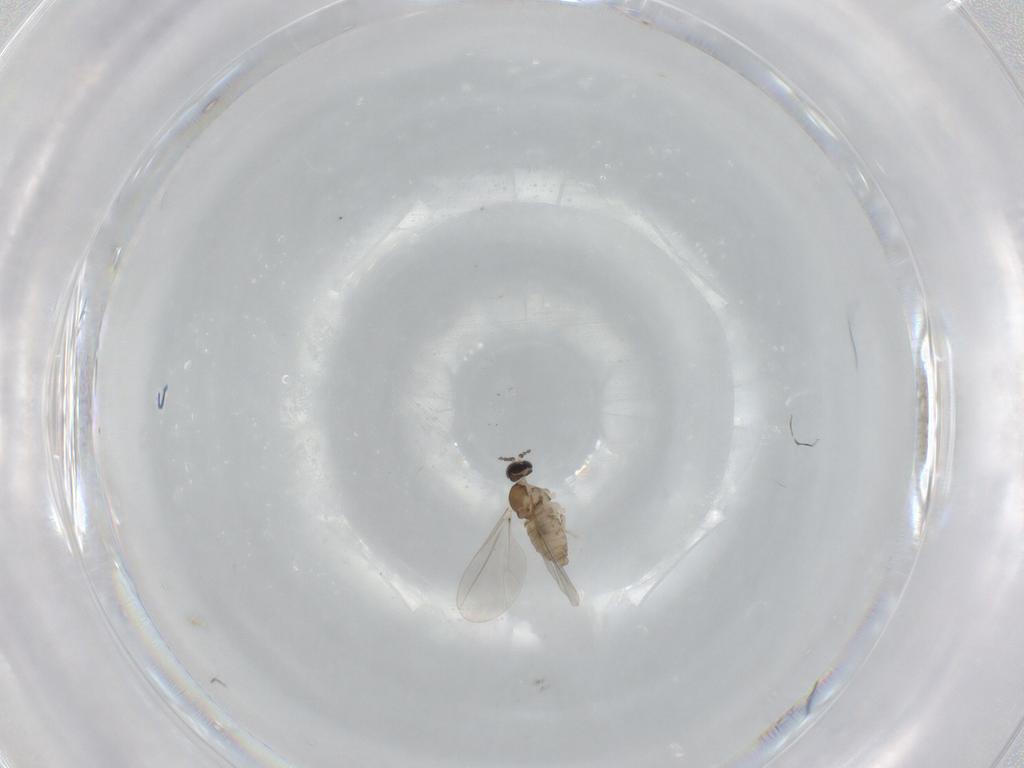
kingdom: Animalia
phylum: Arthropoda
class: Insecta
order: Diptera
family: Cecidomyiidae
